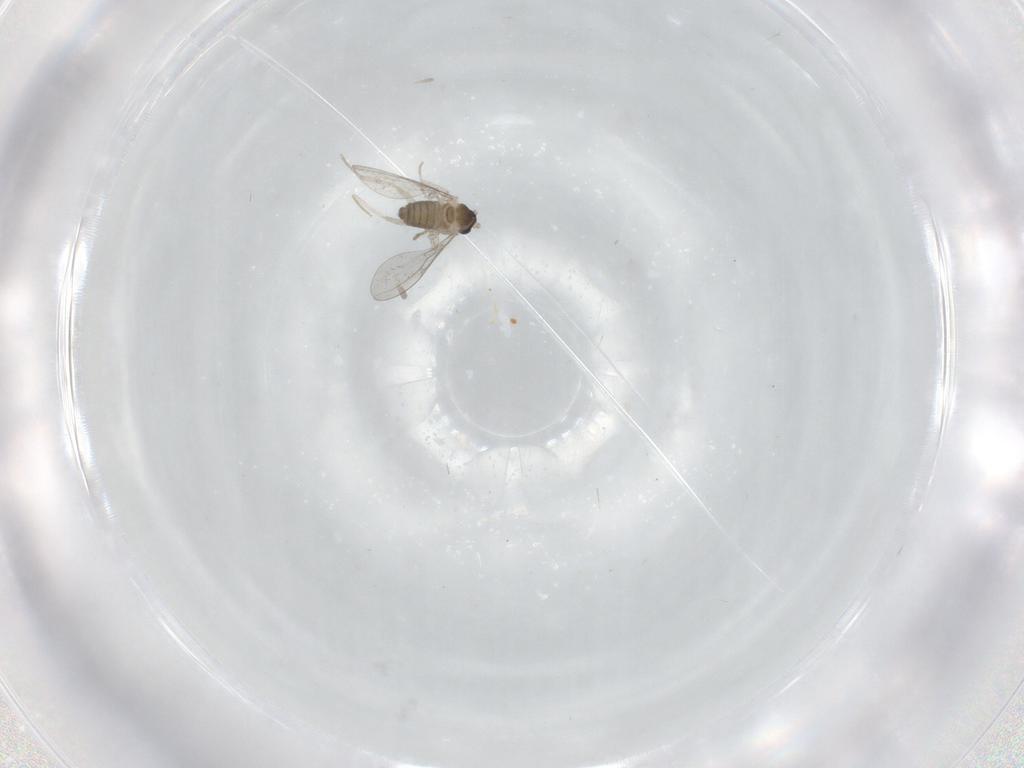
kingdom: Animalia
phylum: Arthropoda
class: Insecta
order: Diptera
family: Cecidomyiidae
